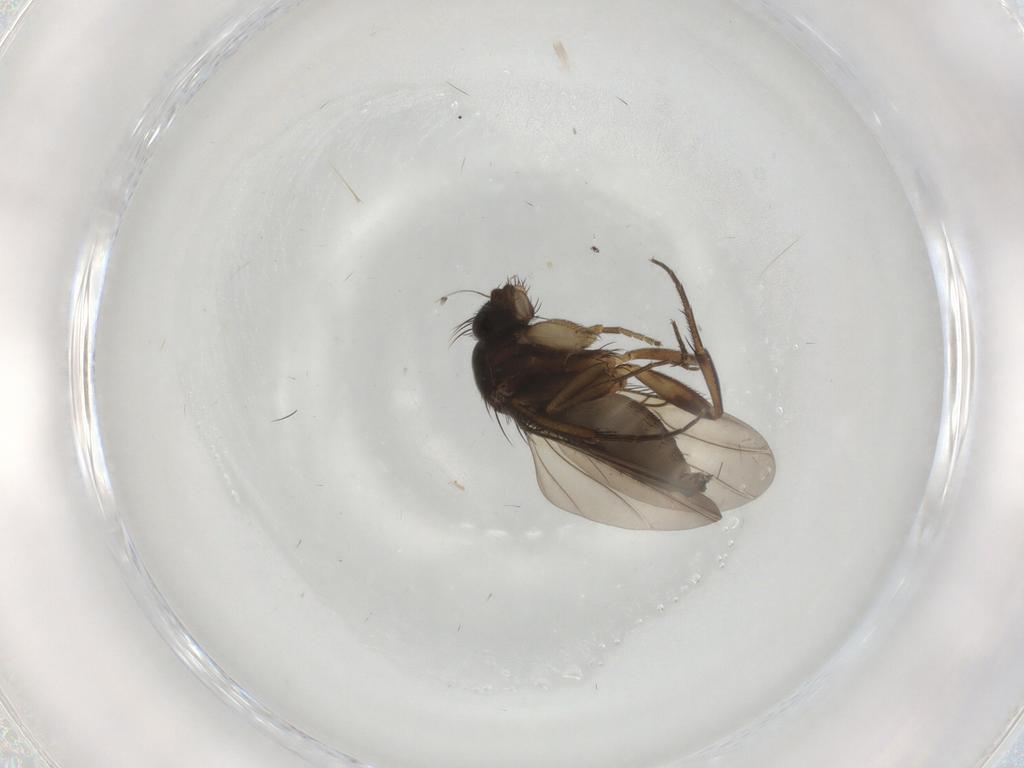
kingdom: Animalia
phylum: Arthropoda
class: Insecta
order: Diptera
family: Phoridae
